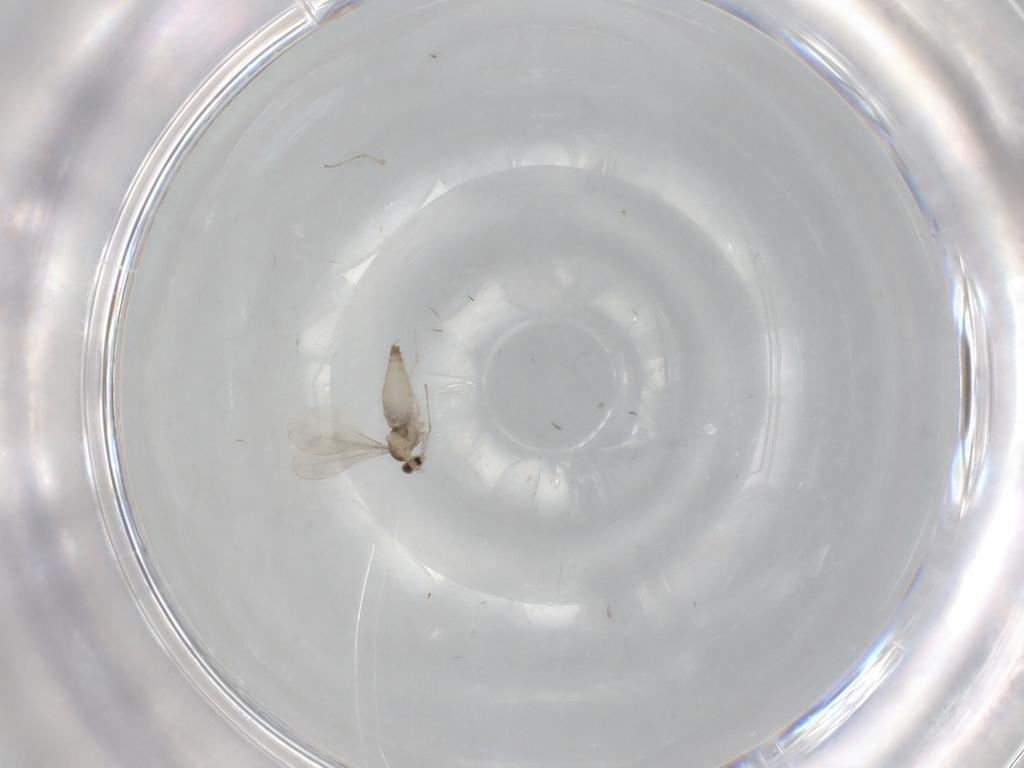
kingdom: Animalia
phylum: Arthropoda
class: Insecta
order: Diptera
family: Cecidomyiidae
